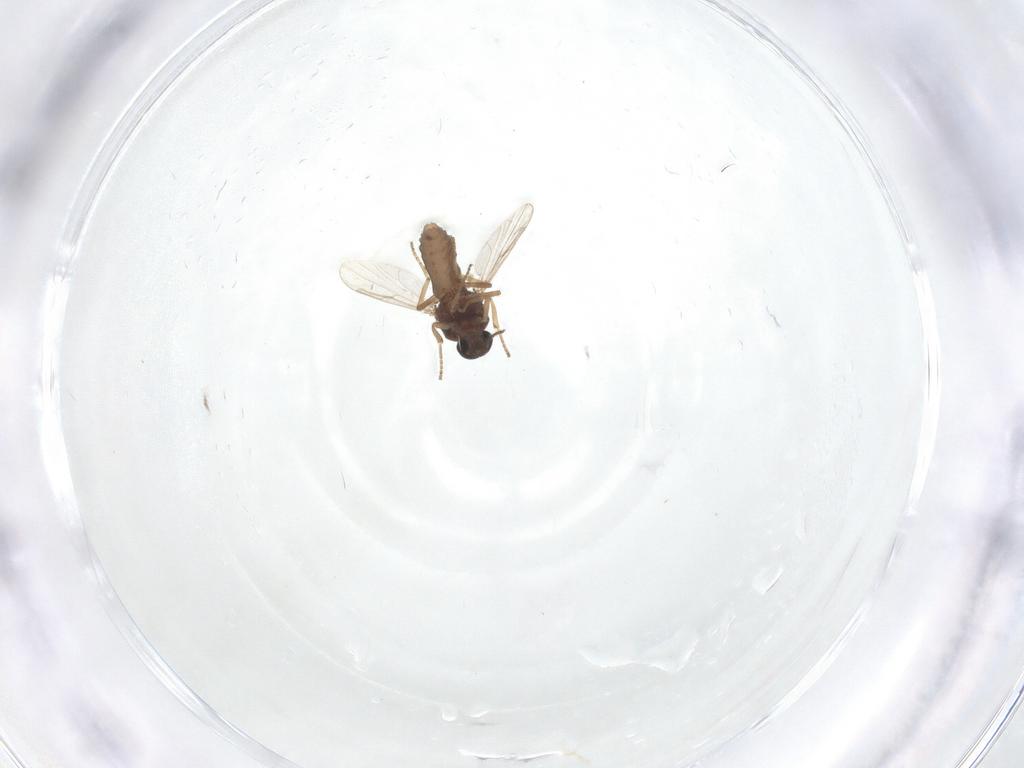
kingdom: Animalia
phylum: Arthropoda
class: Insecta
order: Diptera
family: Ceratopogonidae
